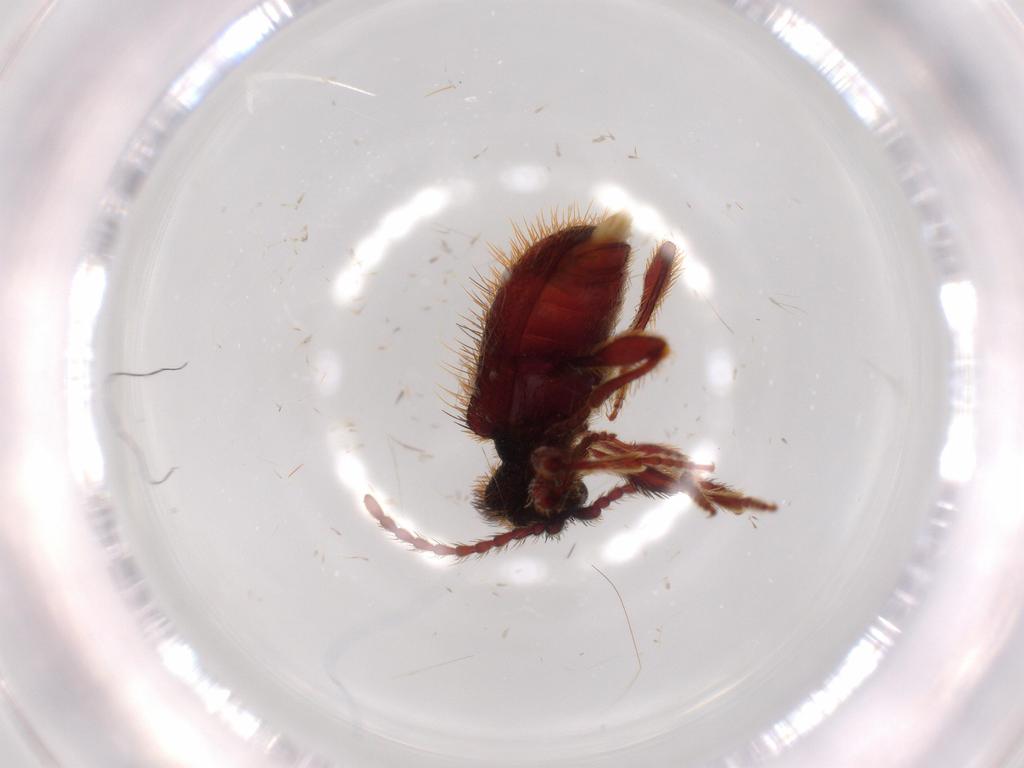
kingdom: Animalia
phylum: Arthropoda
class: Insecta
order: Coleoptera
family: Ptinidae
